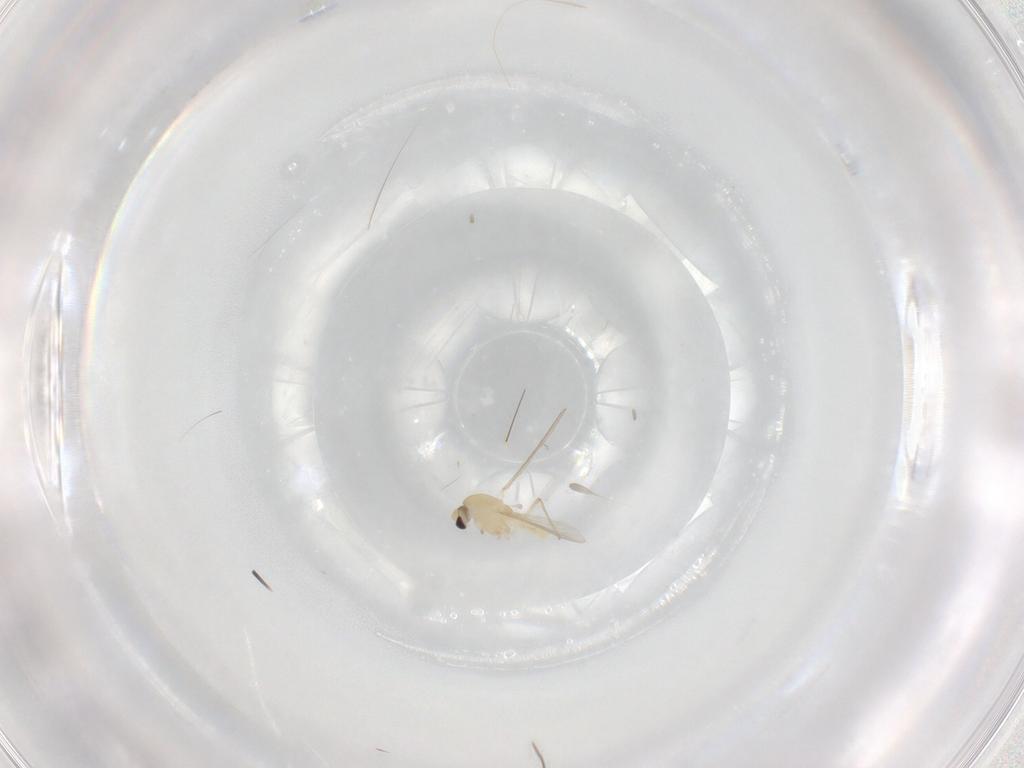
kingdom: Animalia
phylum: Arthropoda
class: Insecta
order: Diptera
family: Chironomidae
